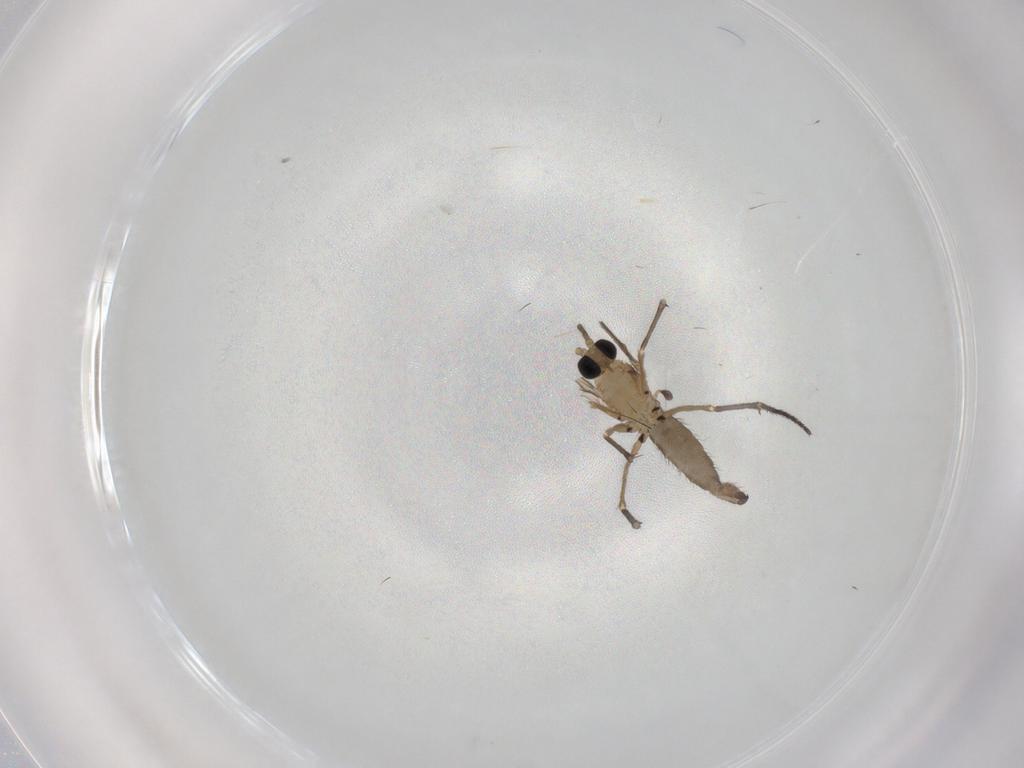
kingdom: Animalia
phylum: Arthropoda
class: Insecta
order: Diptera
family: Sciaridae
